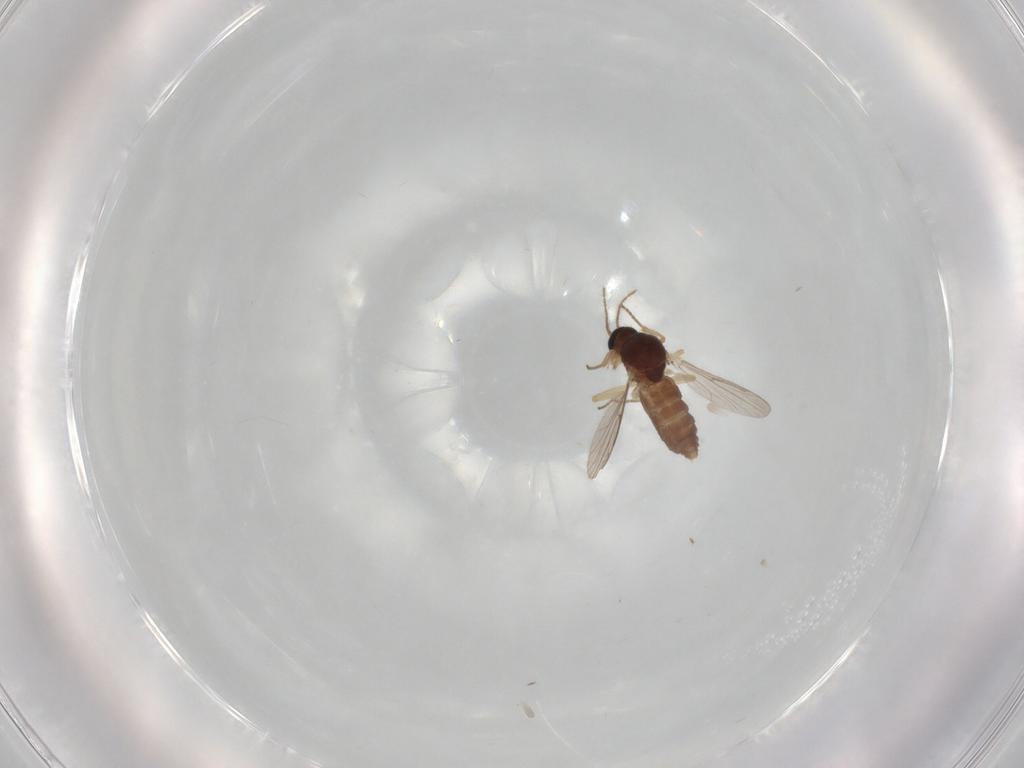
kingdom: Animalia
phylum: Arthropoda
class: Insecta
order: Diptera
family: Ceratopogonidae
